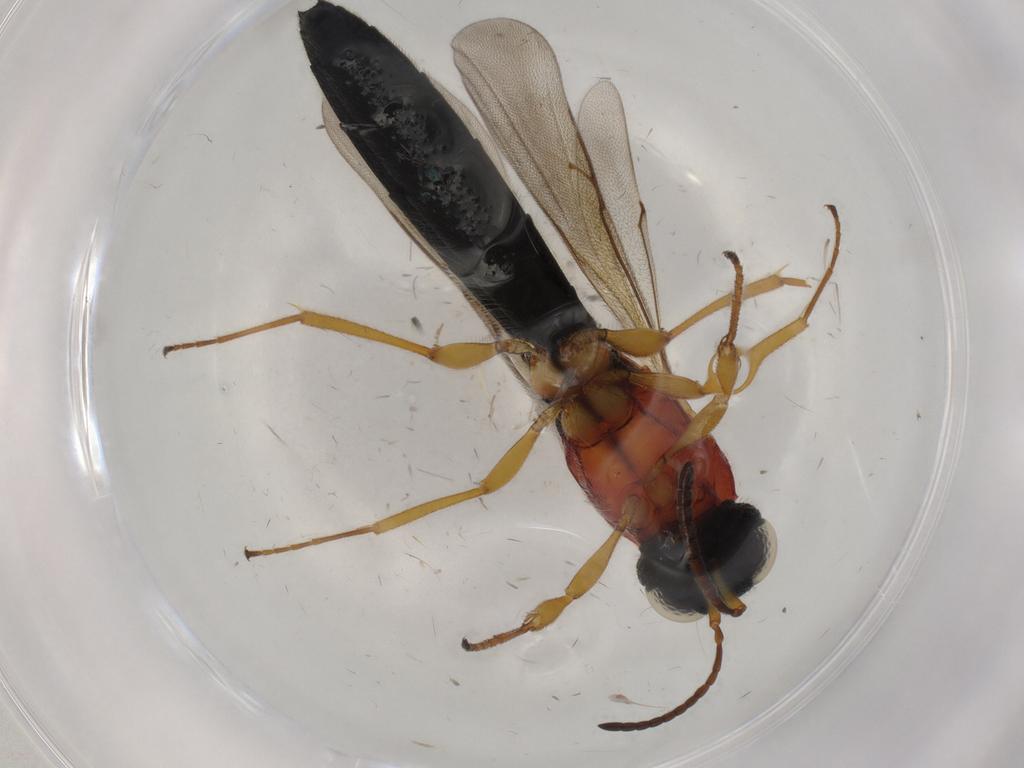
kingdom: Animalia
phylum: Arthropoda
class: Insecta
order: Hymenoptera
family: Scelionidae
